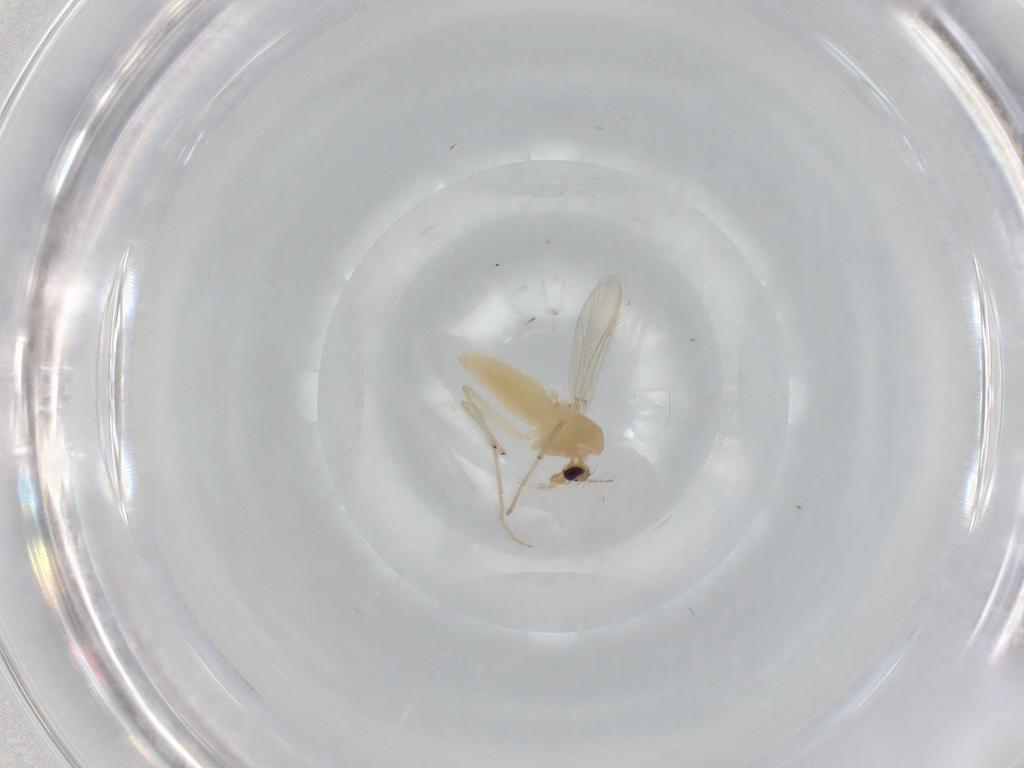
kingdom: Animalia
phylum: Arthropoda
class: Insecta
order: Diptera
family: Chironomidae
